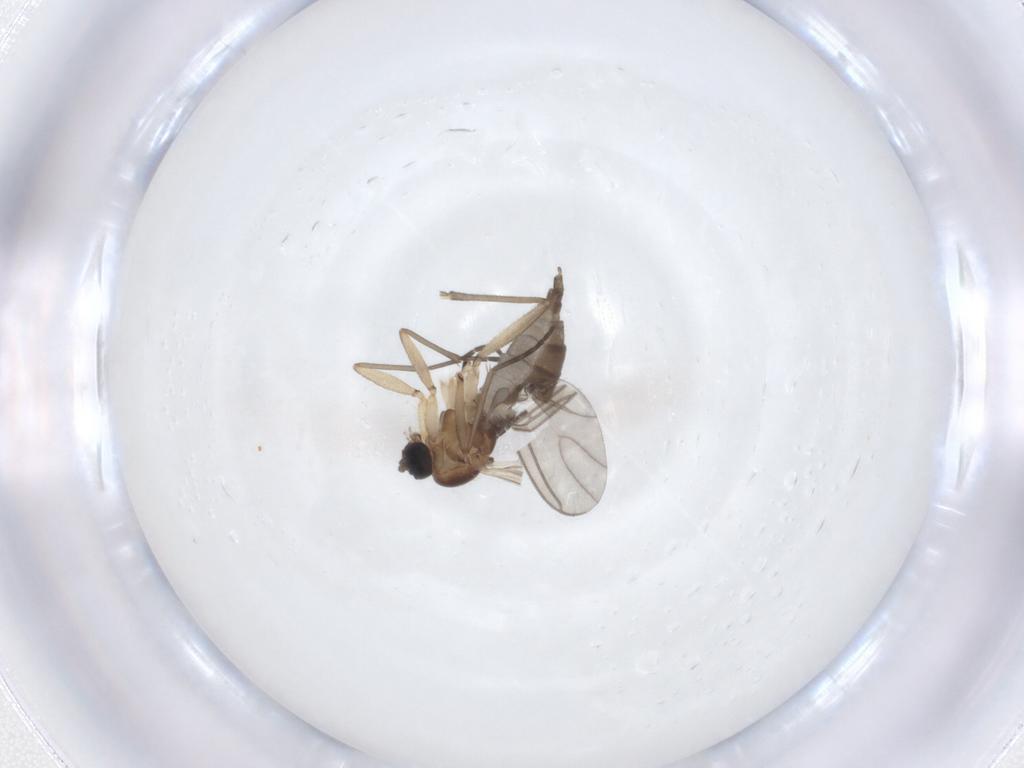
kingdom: Animalia
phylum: Arthropoda
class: Insecta
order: Diptera
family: Sciaridae
